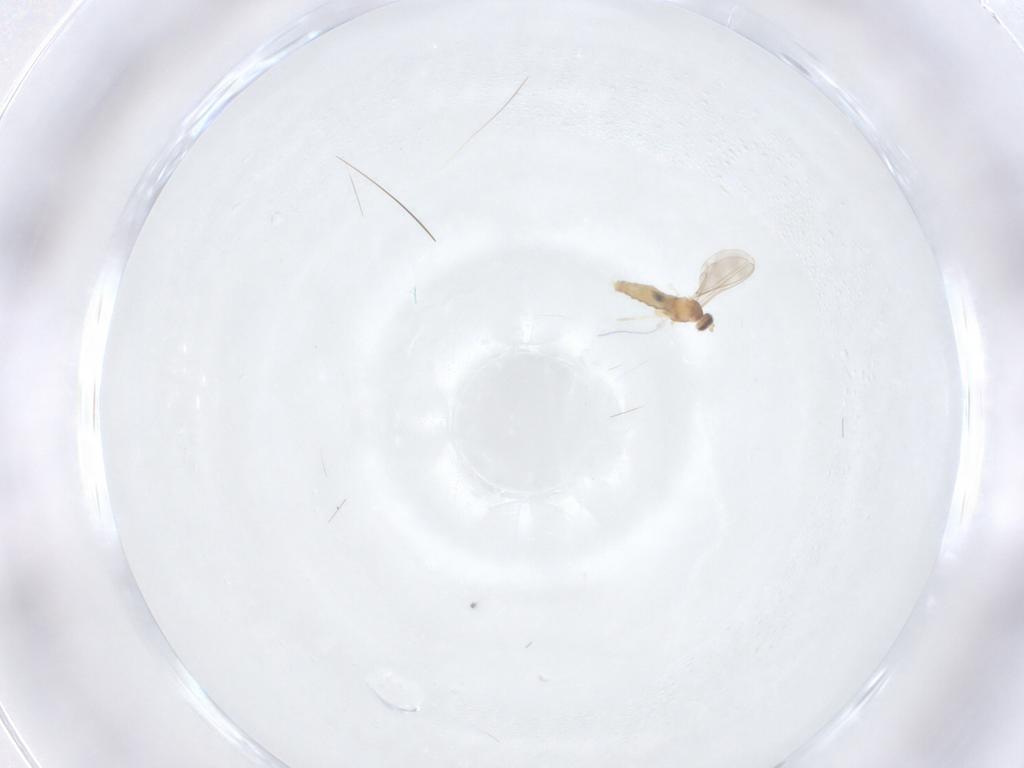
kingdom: Animalia
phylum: Arthropoda
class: Insecta
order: Diptera
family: Cecidomyiidae
